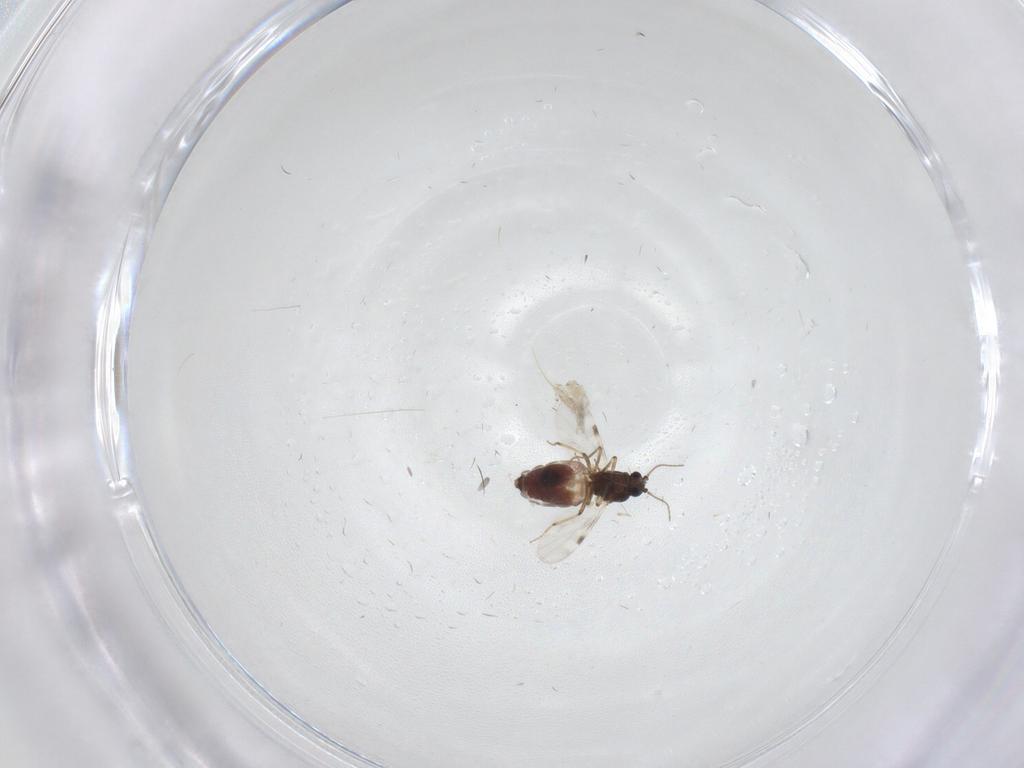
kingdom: Animalia
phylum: Arthropoda
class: Insecta
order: Diptera
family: Chironomidae
